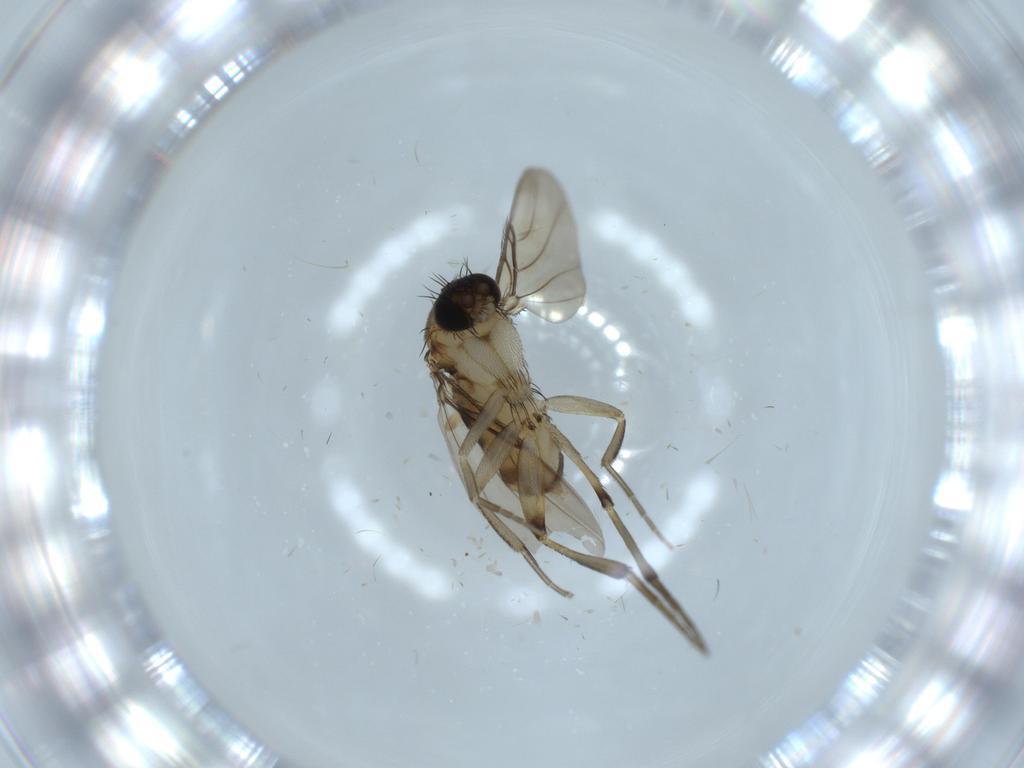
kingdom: Animalia
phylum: Arthropoda
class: Insecta
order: Diptera
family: Phoridae
